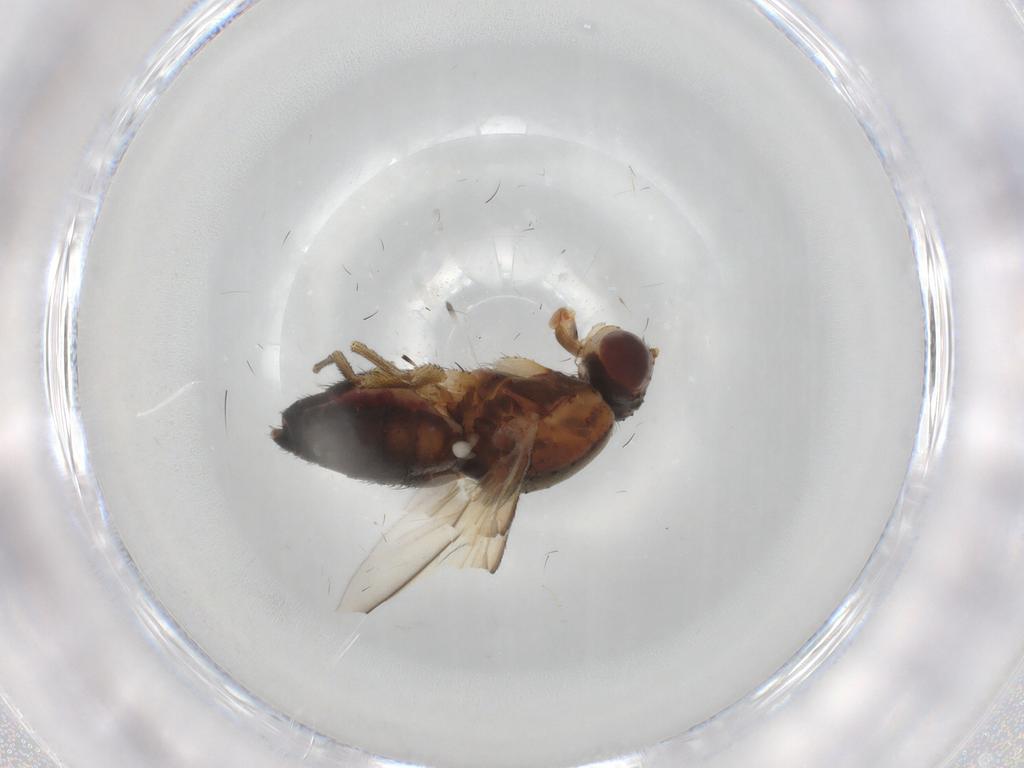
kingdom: Animalia
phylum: Arthropoda
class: Insecta
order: Diptera
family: Heleomyzidae
